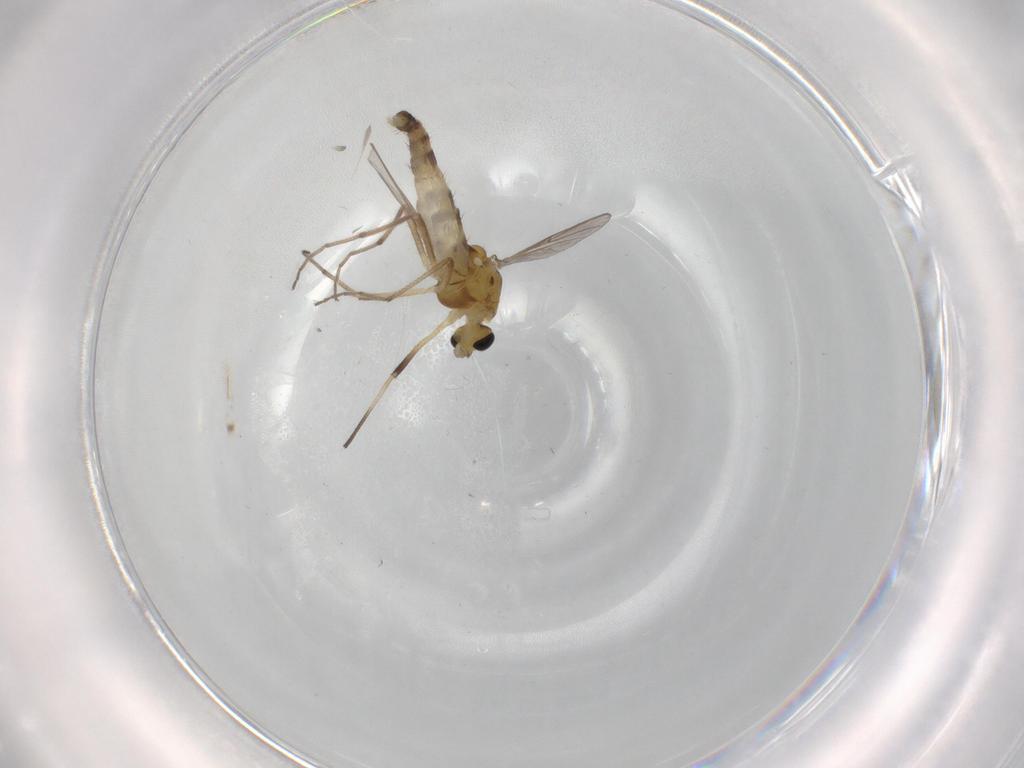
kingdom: Animalia
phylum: Arthropoda
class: Insecta
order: Diptera
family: Chironomidae
